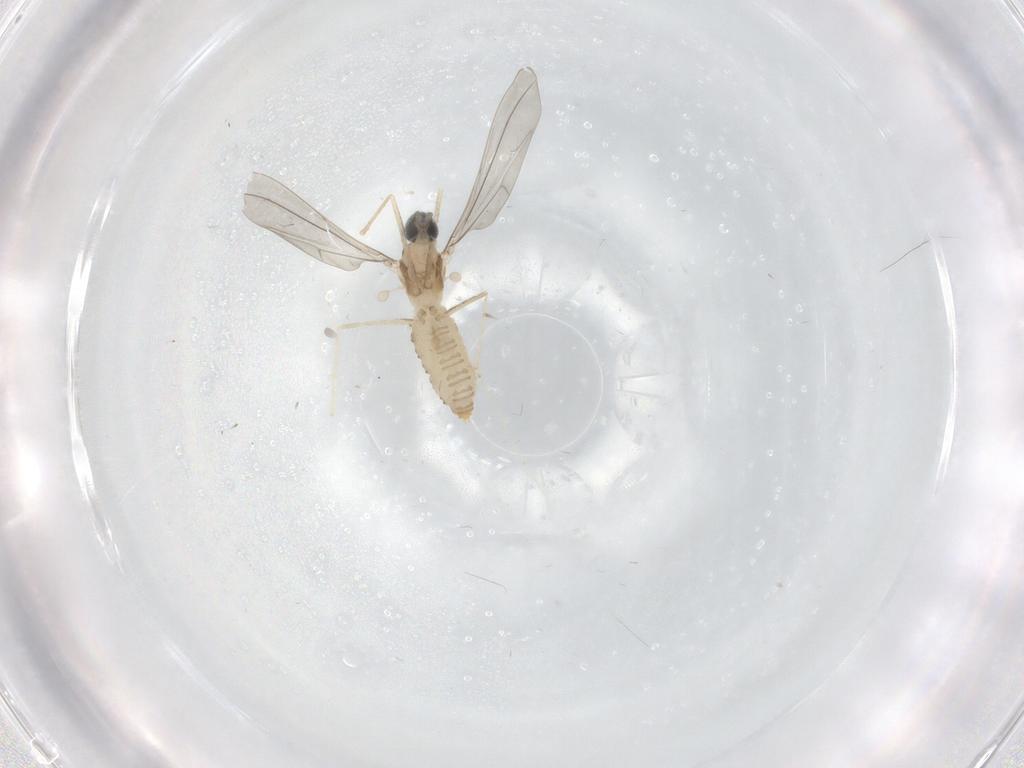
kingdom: Animalia
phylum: Arthropoda
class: Insecta
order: Diptera
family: Cecidomyiidae
